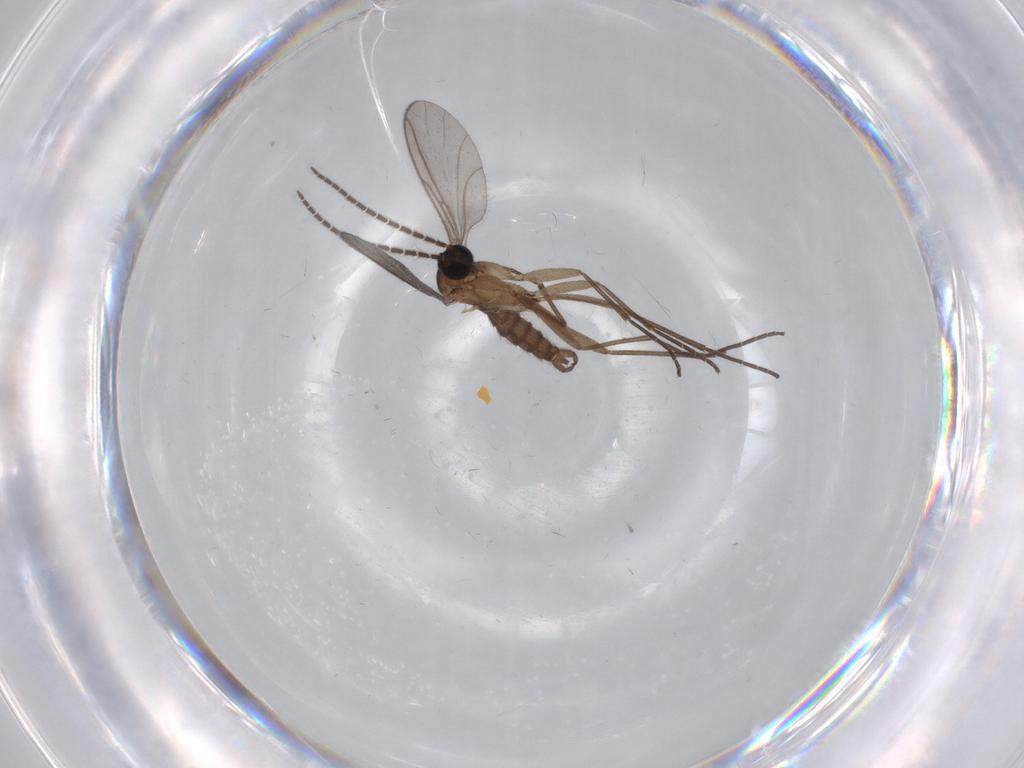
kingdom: Animalia
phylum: Arthropoda
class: Insecta
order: Diptera
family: Sciaridae
